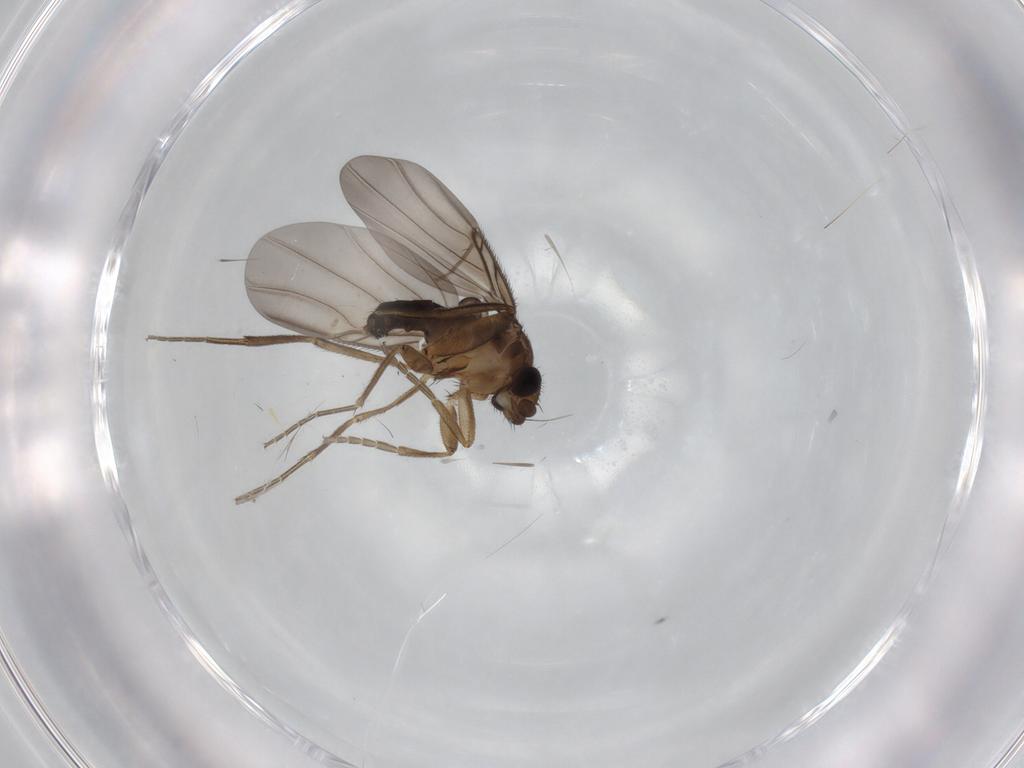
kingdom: Animalia
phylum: Arthropoda
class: Insecta
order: Diptera
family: Phoridae
